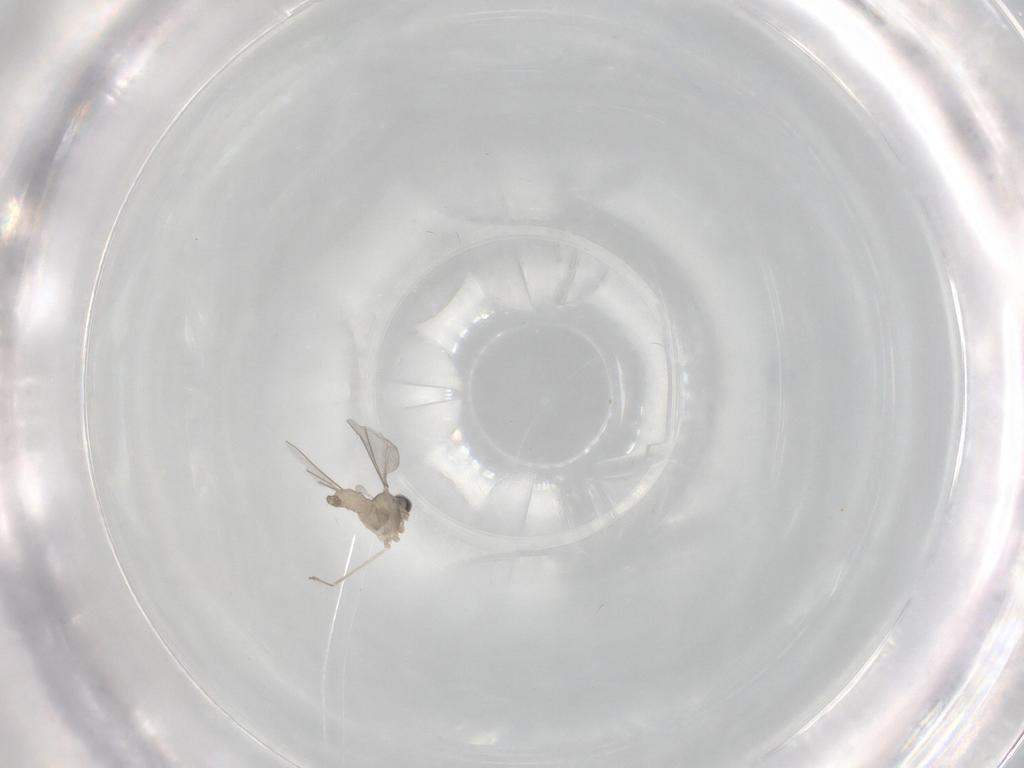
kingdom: Animalia
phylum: Arthropoda
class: Insecta
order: Diptera
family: Cecidomyiidae
